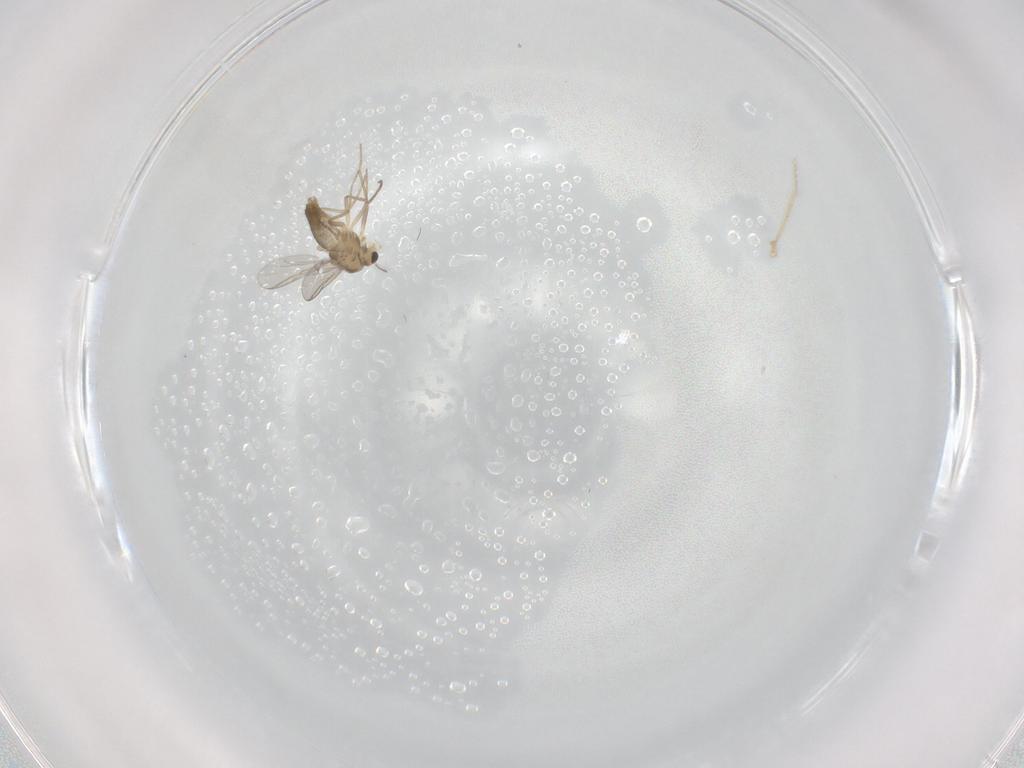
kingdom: Animalia
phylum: Arthropoda
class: Insecta
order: Diptera
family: Chironomidae
